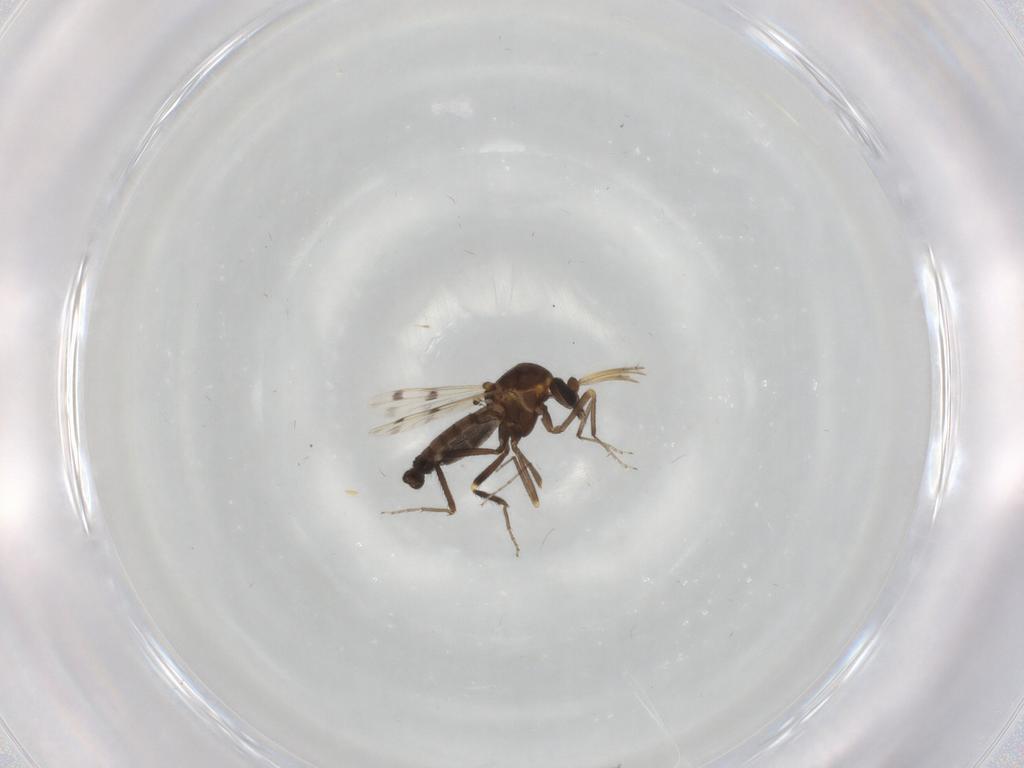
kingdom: Animalia
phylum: Arthropoda
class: Insecta
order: Diptera
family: Ceratopogonidae
